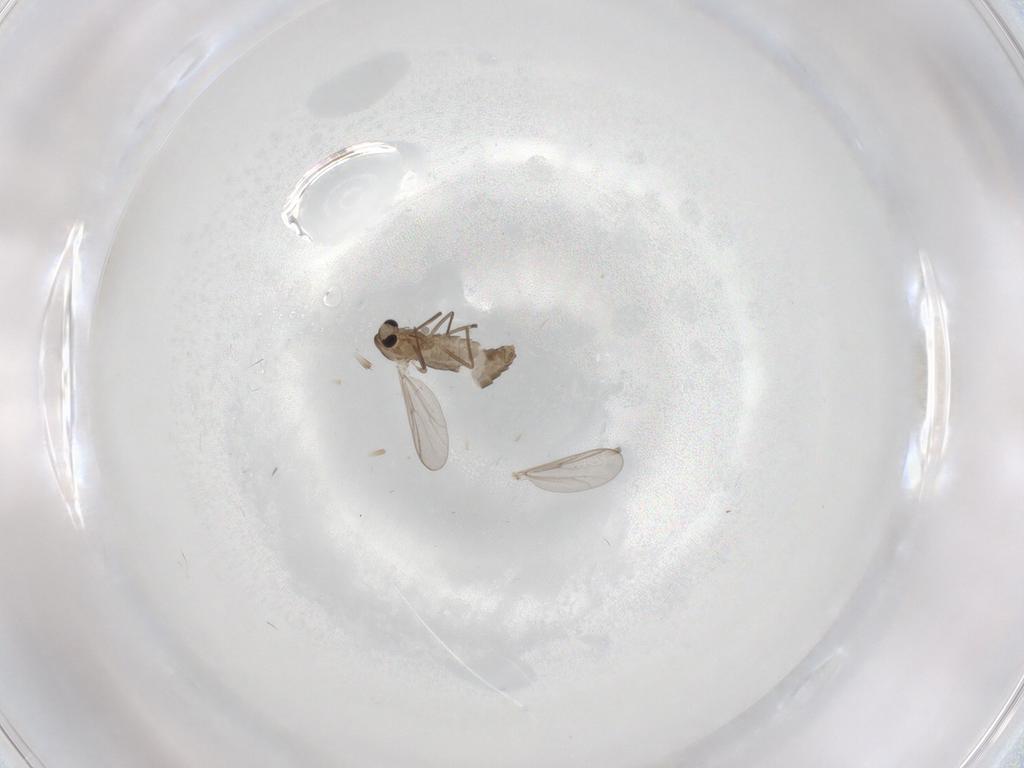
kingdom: Animalia
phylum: Arthropoda
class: Insecta
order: Diptera
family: Chironomidae
